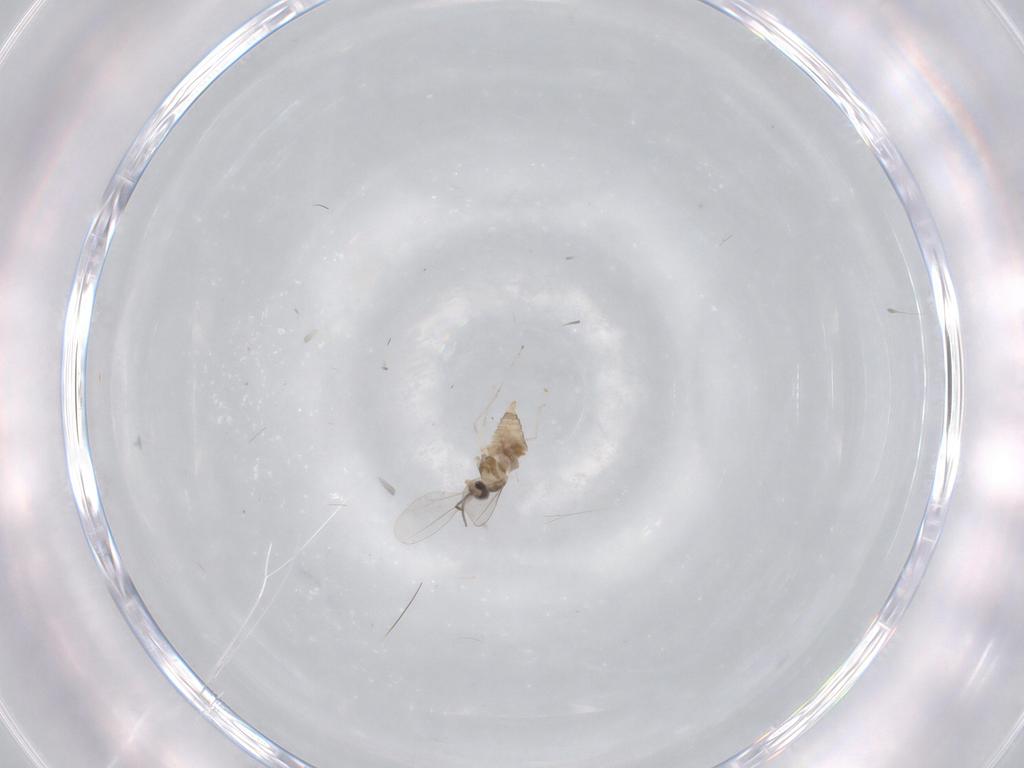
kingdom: Animalia
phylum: Arthropoda
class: Insecta
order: Diptera
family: Cecidomyiidae
